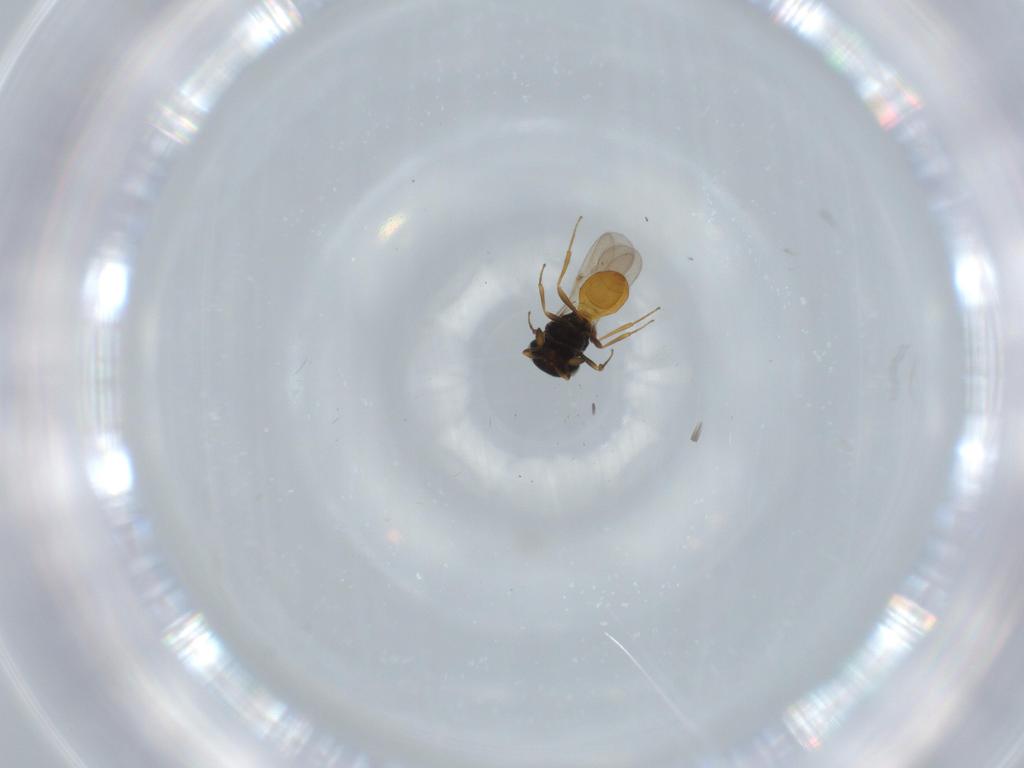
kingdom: Animalia
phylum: Arthropoda
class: Insecta
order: Hymenoptera
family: Scelionidae
